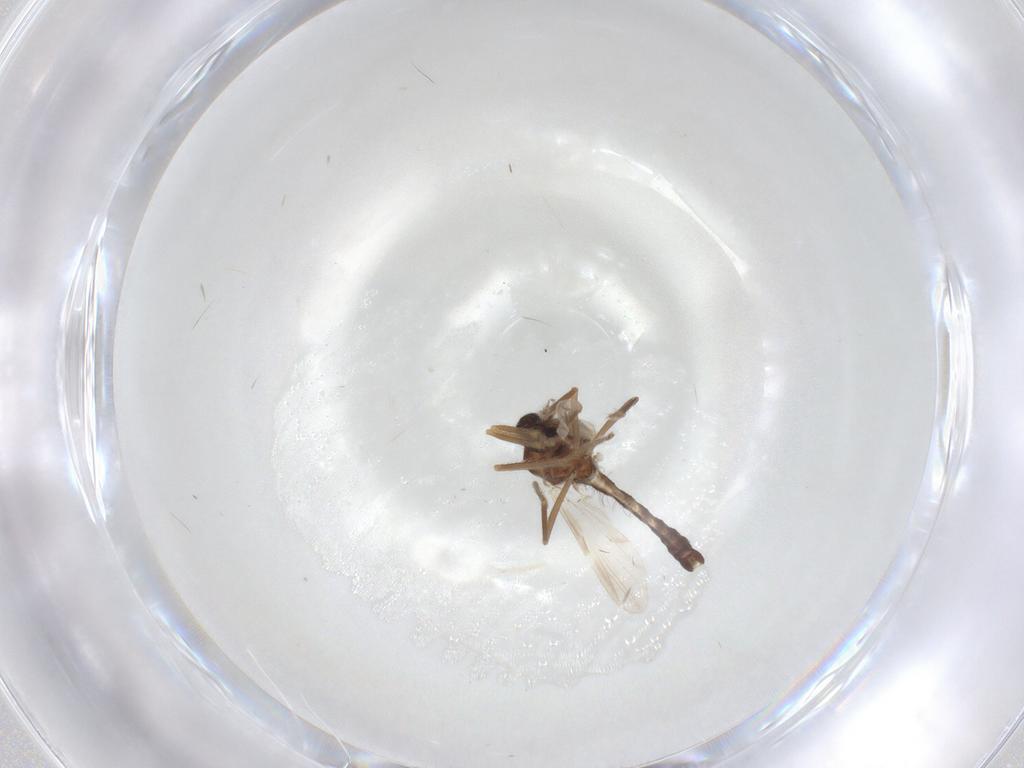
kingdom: Animalia
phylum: Arthropoda
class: Insecta
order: Diptera
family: Ceratopogonidae
